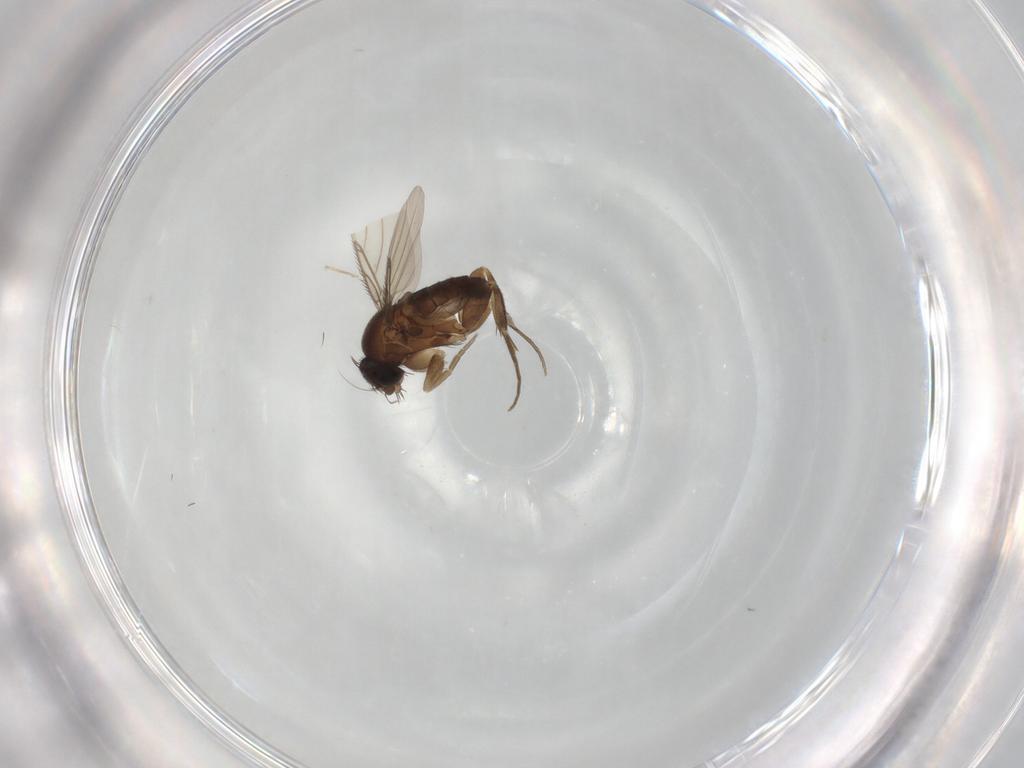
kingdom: Animalia
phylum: Arthropoda
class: Insecta
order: Diptera
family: Phoridae
